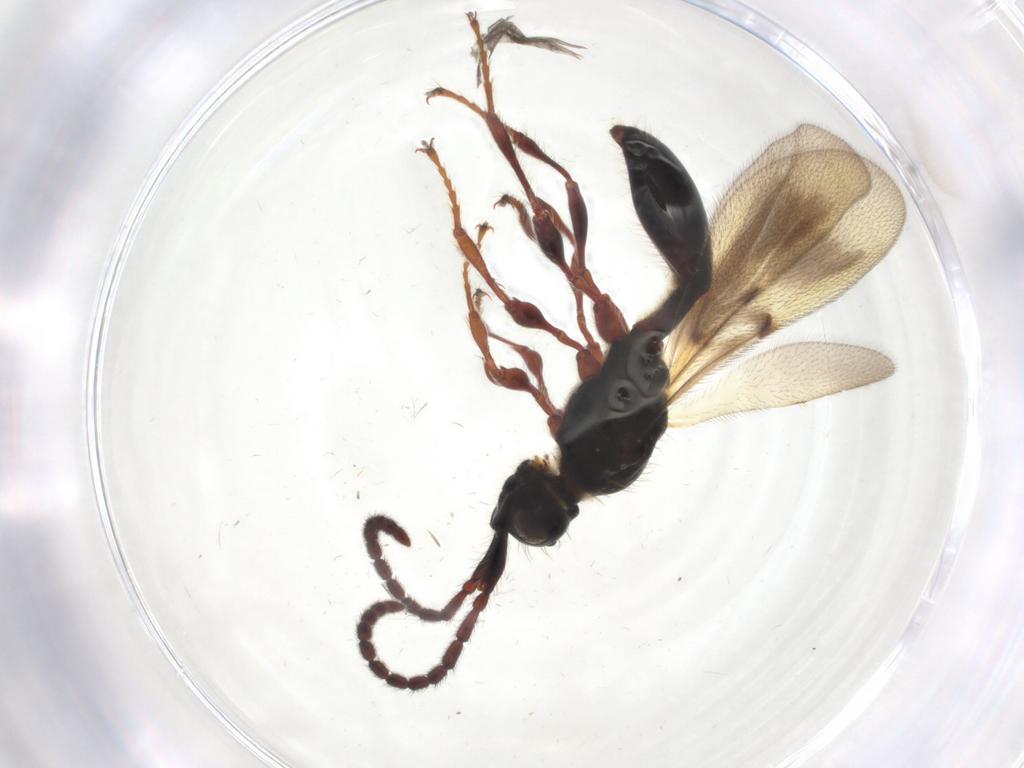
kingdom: Animalia
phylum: Arthropoda
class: Insecta
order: Hymenoptera
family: Diapriidae
